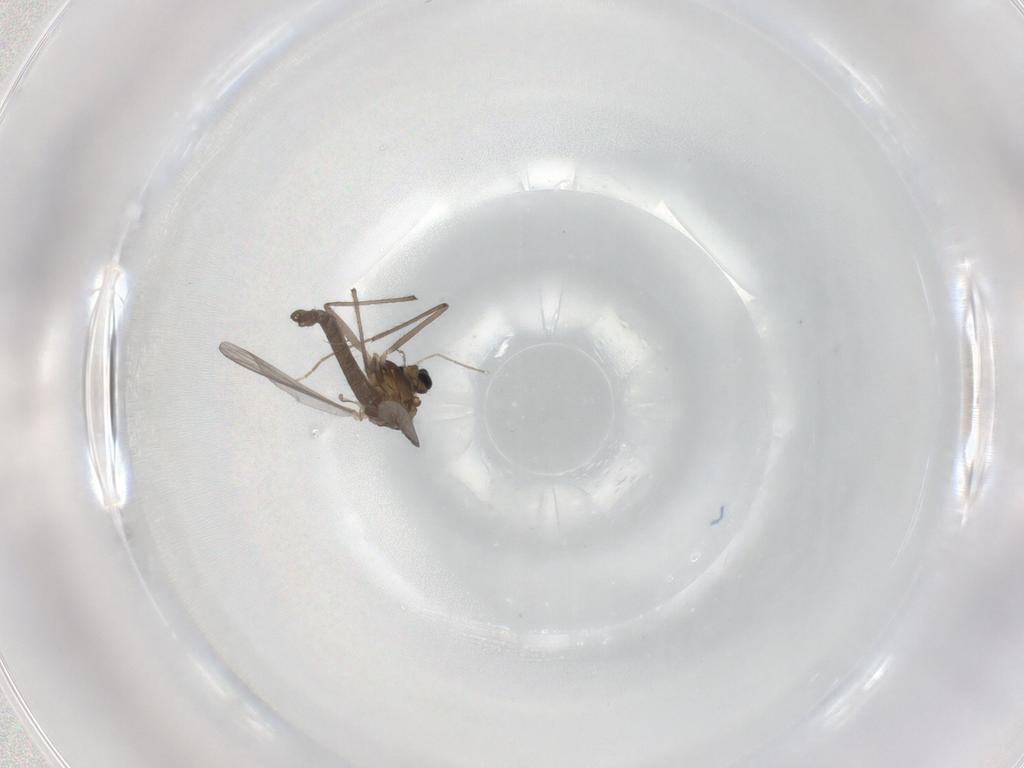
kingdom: Animalia
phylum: Arthropoda
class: Insecta
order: Diptera
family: Chironomidae
